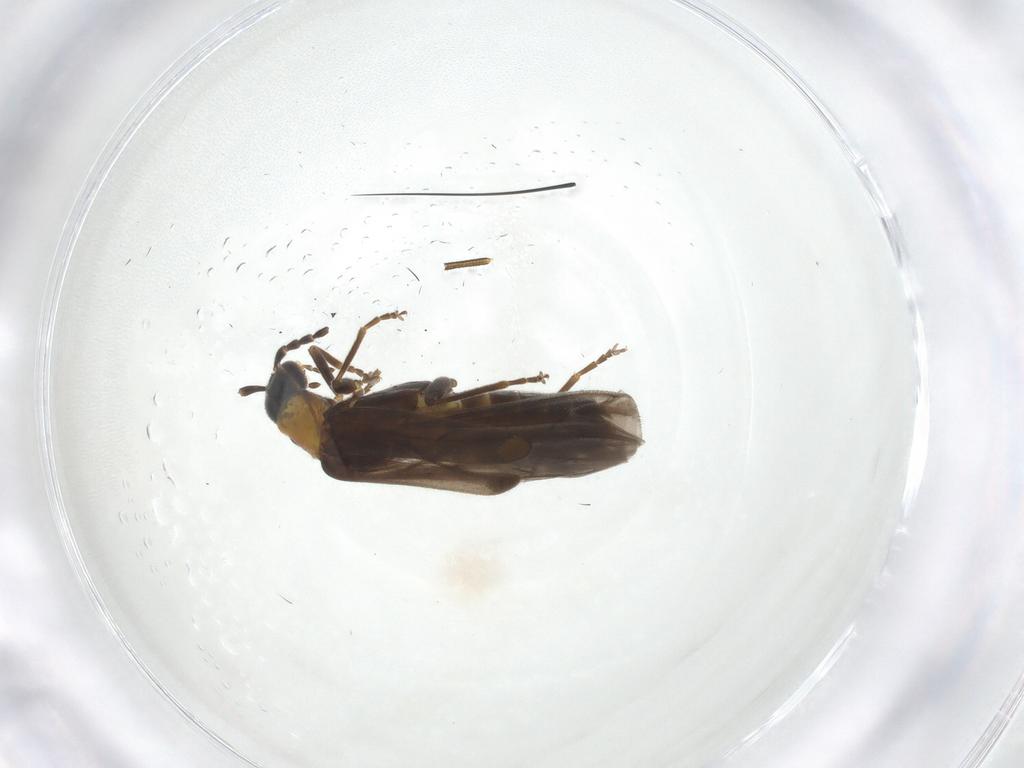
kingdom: Animalia
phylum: Arthropoda
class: Insecta
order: Coleoptera
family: Cantharidae
